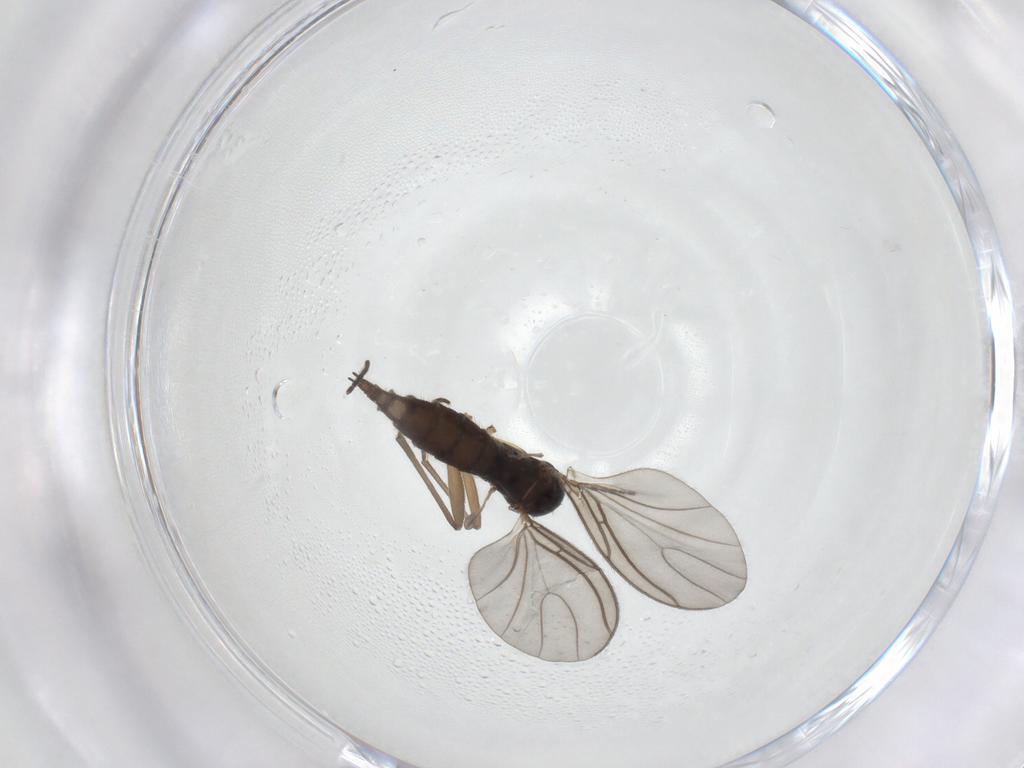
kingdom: Animalia
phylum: Arthropoda
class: Insecta
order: Diptera
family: Sciaridae
